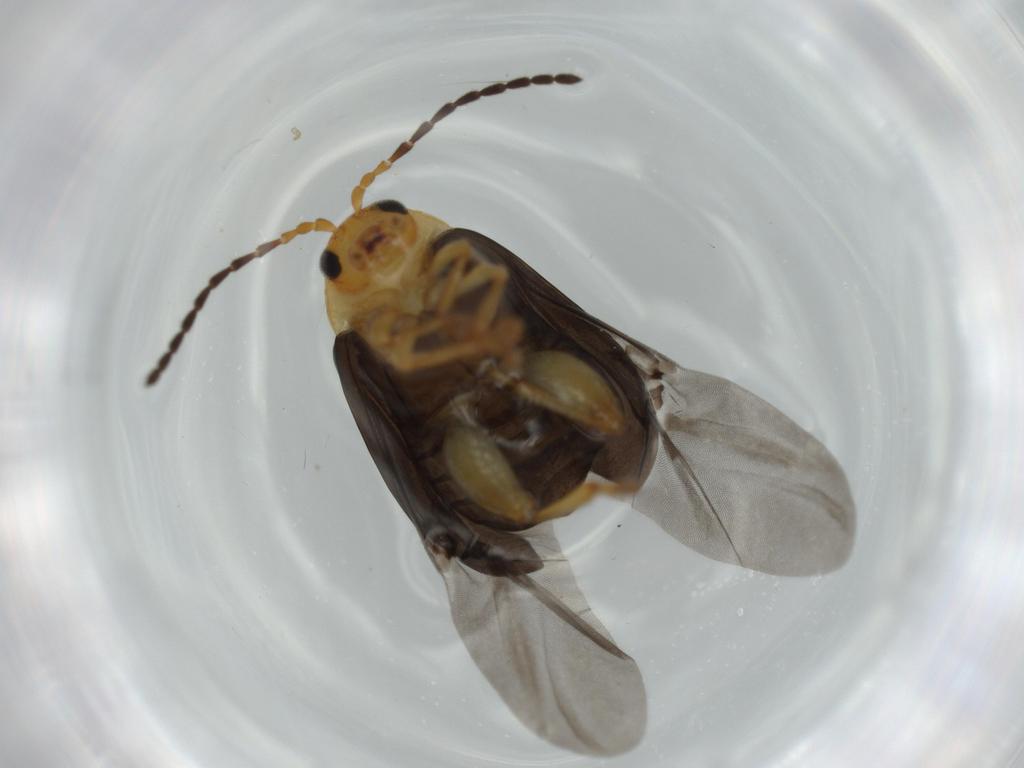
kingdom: Animalia
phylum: Arthropoda
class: Insecta
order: Coleoptera
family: Chrysomelidae
